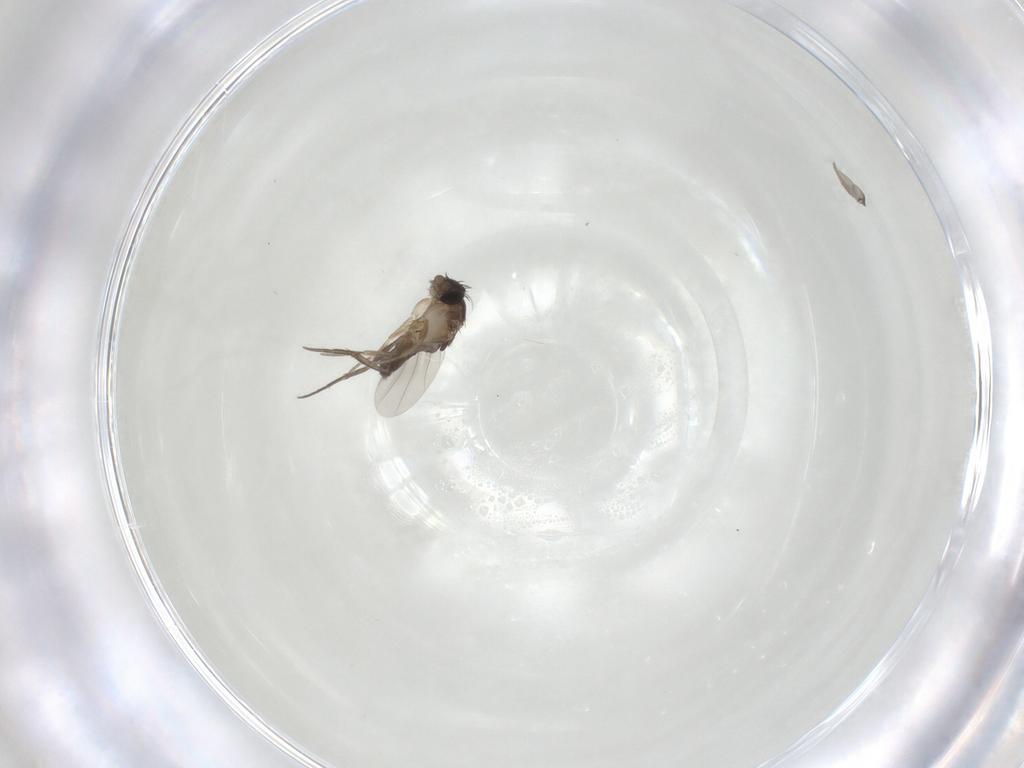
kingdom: Animalia
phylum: Arthropoda
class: Insecta
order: Diptera
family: Phoridae
